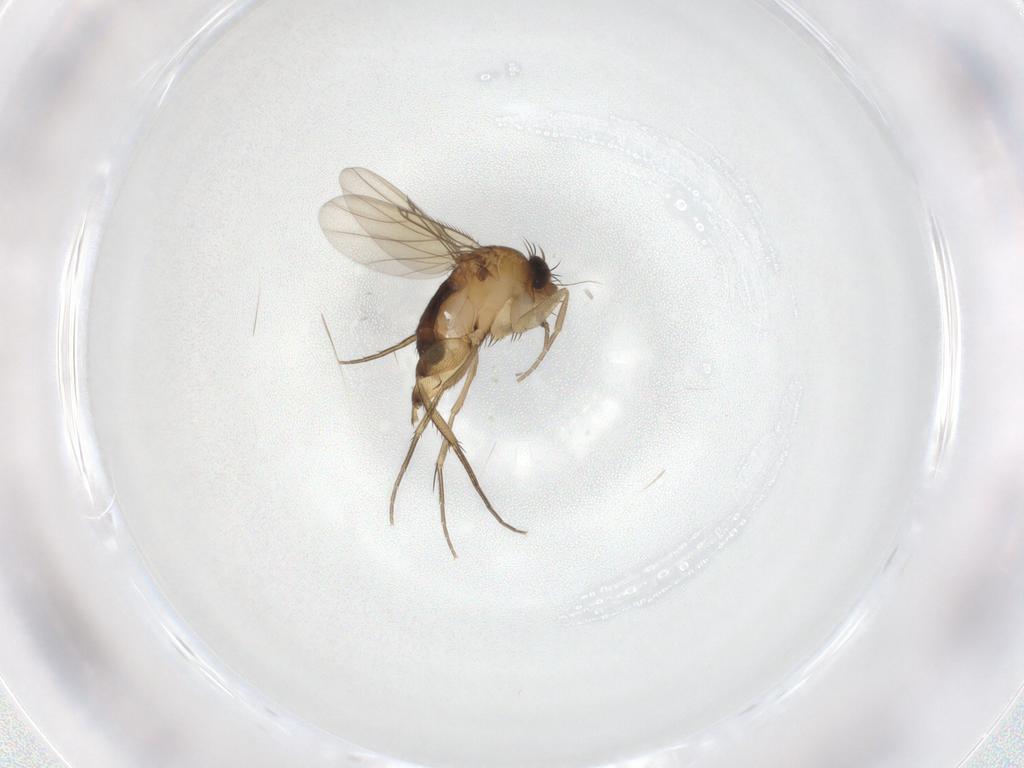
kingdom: Animalia
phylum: Arthropoda
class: Insecta
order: Diptera
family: Phoridae
